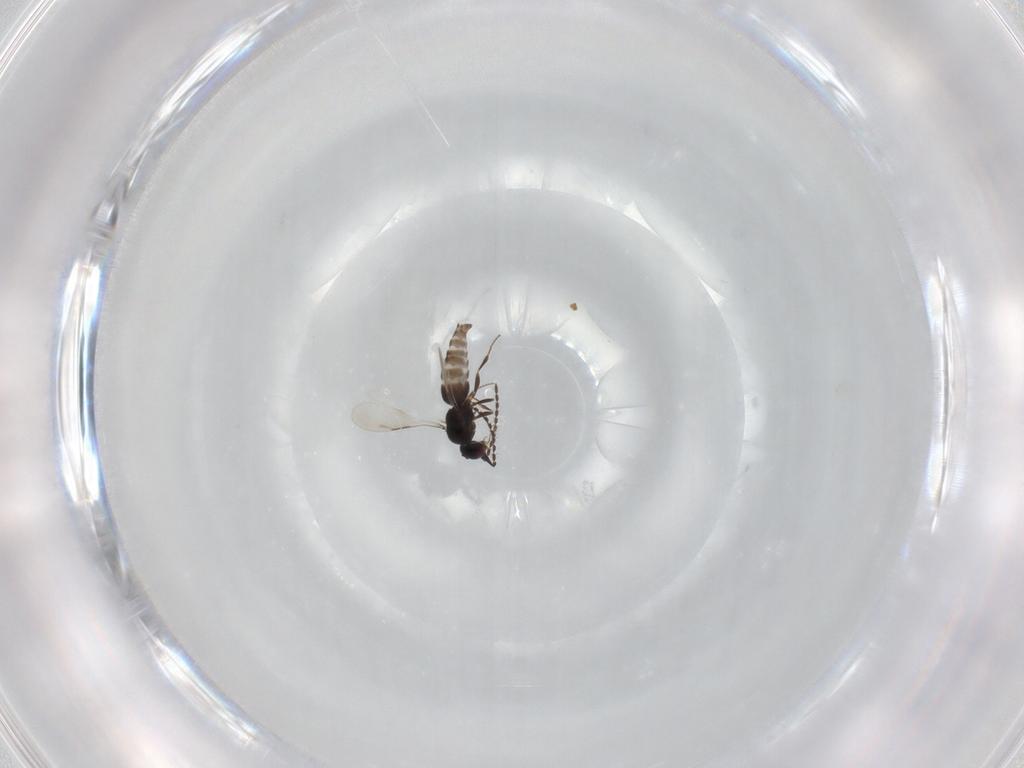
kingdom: Animalia
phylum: Arthropoda
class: Insecta
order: Hymenoptera
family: Ceraphronidae
